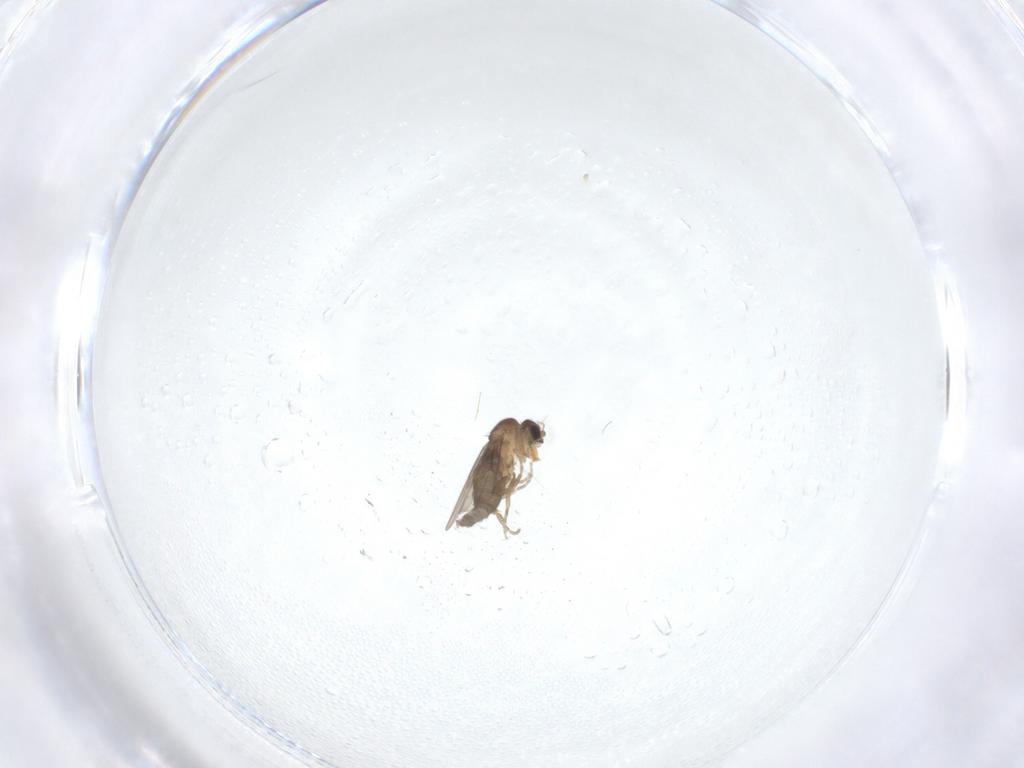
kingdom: Animalia
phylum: Arthropoda
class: Insecta
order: Diptera
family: Phoridae
